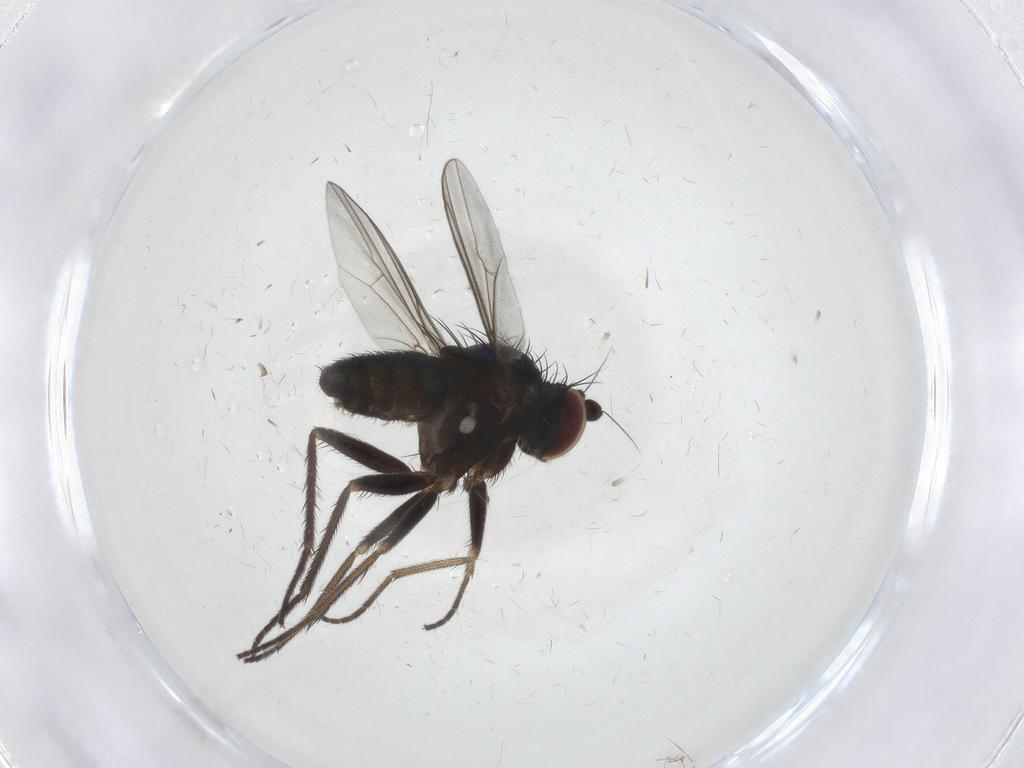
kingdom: Animalia
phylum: Arthropoda
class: Insecta
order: Diptera
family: Dolichopodidae
